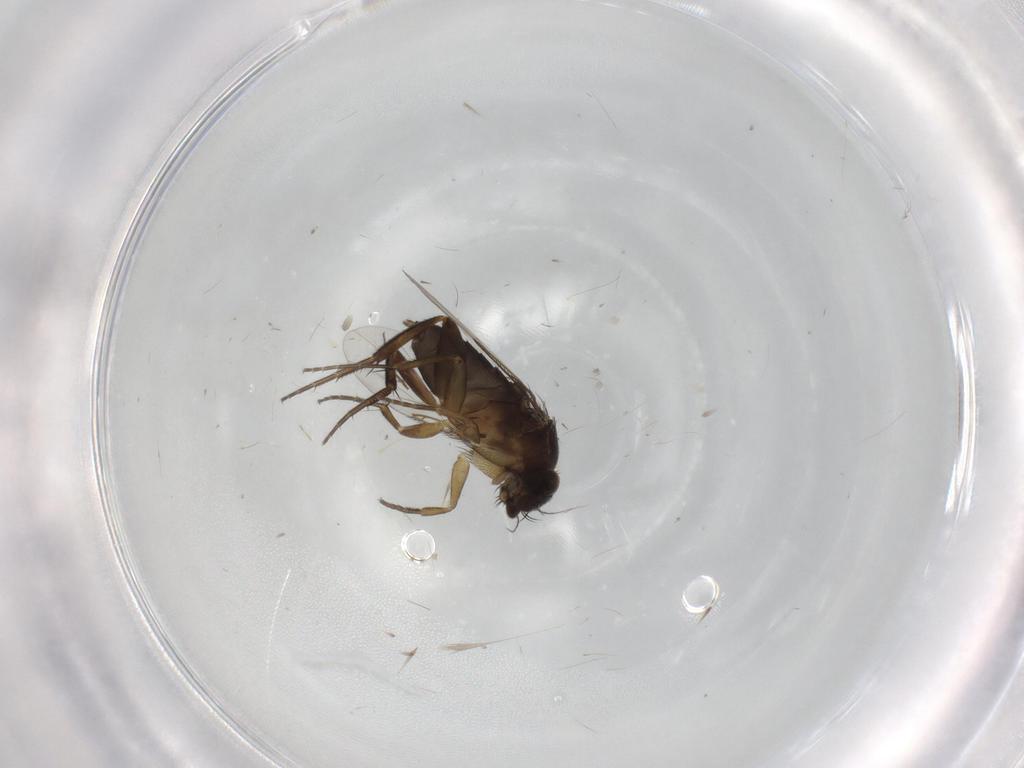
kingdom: Animalia
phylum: Arthropoda
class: Insecta
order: Diptera
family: Phoridae
